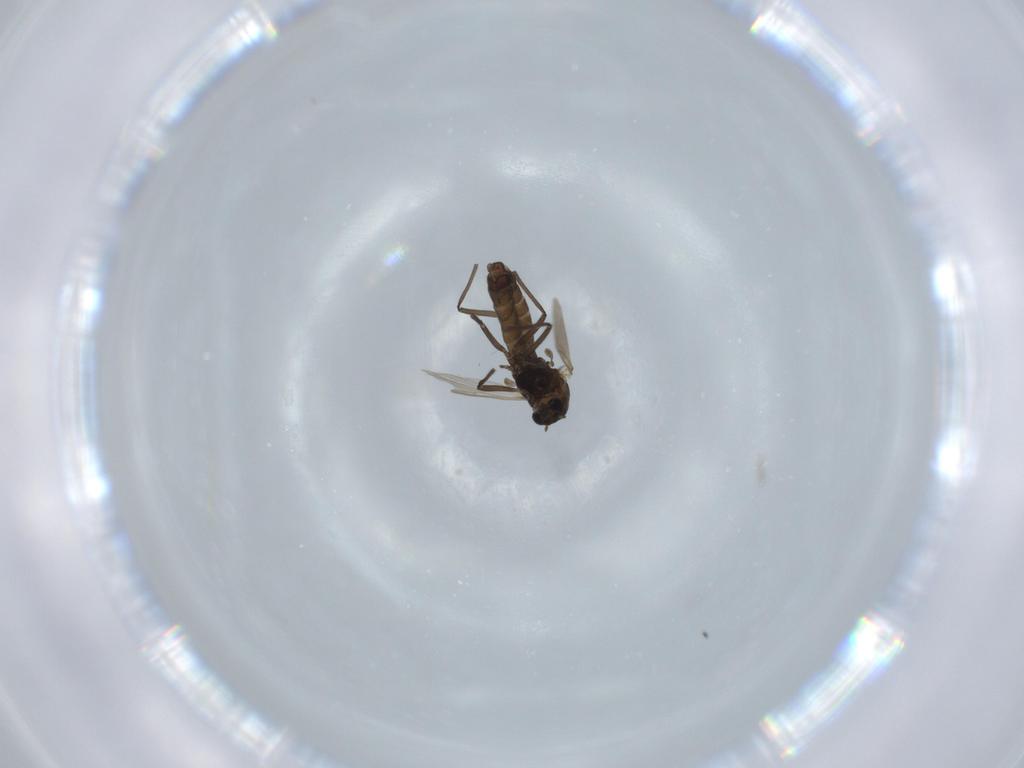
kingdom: Animalia
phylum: Arthropoda
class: Insecta
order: Diptera
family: Chironomidae
